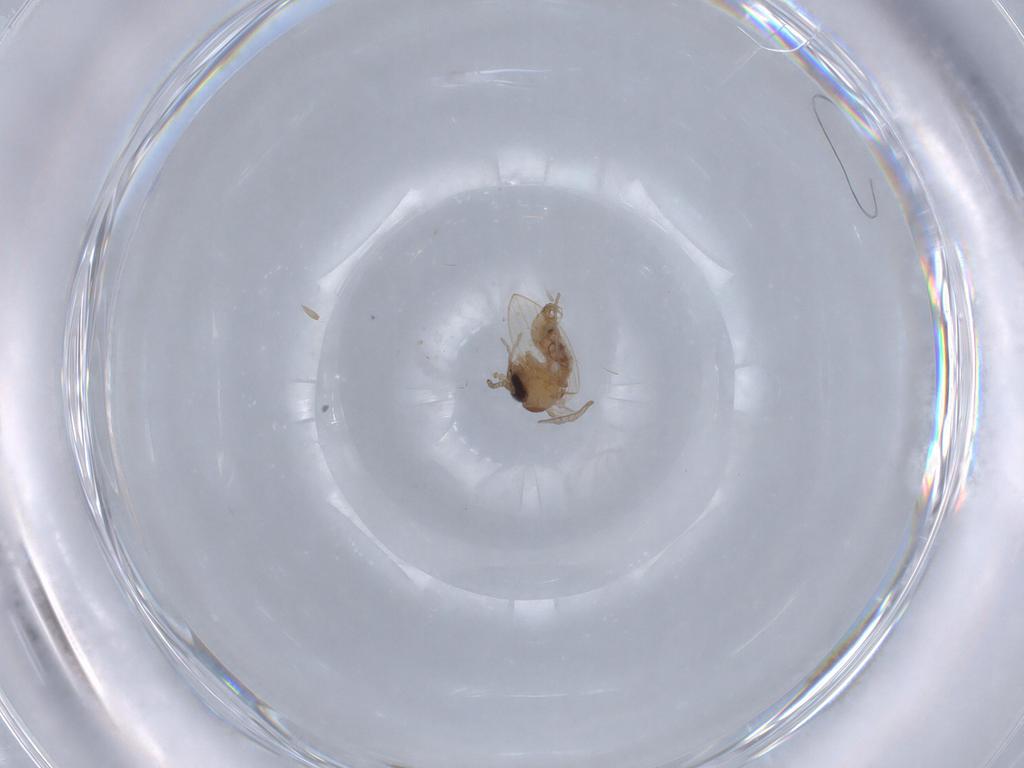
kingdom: Animalia
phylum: Arthropoda
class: Insecta
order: Diptera
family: Psychodidae
